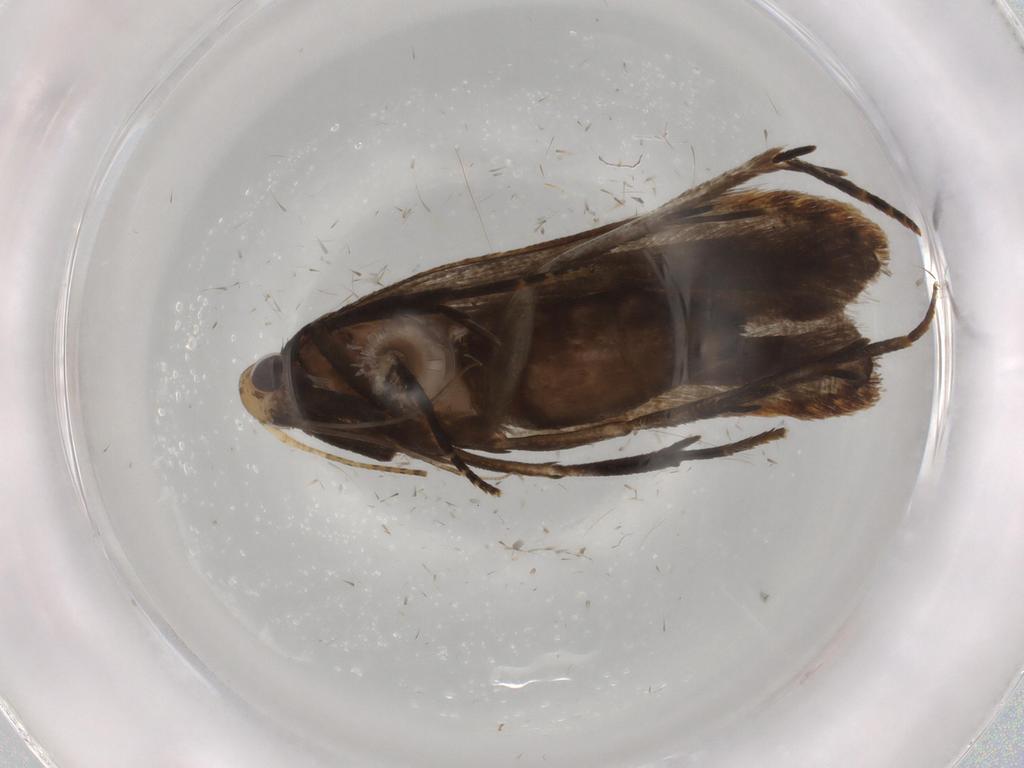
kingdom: Animalia
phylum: Arthropoda
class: Insecta
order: Lepidoptera
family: Gelechiidae
